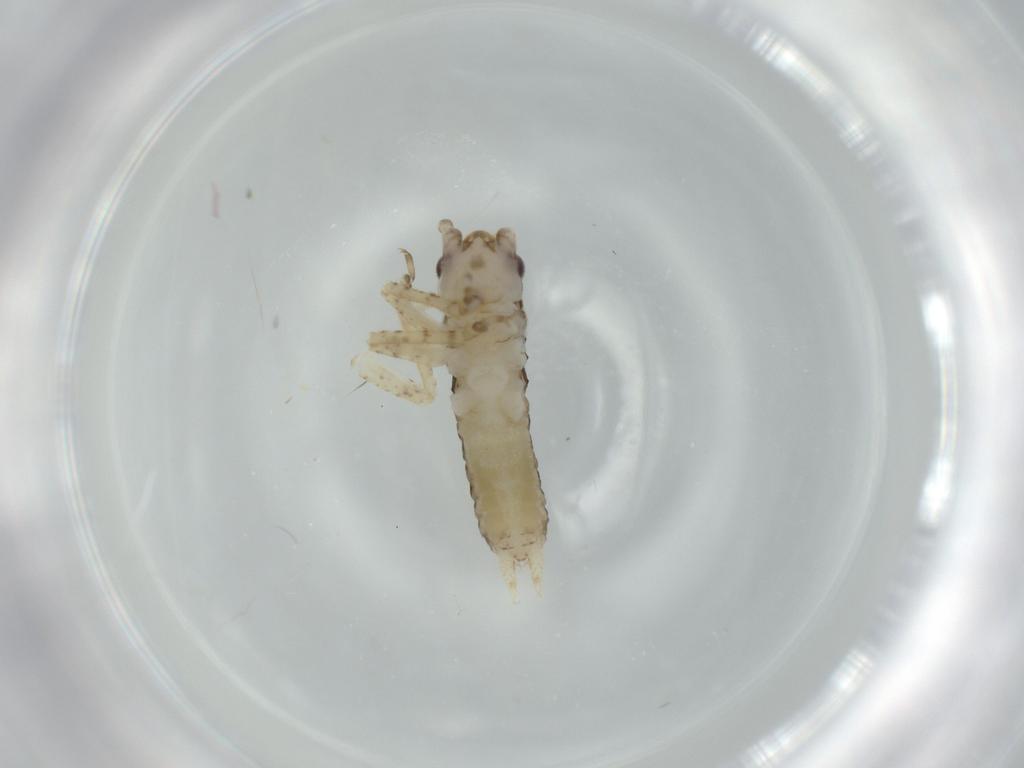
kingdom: Animalia
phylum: Arthropoda
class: Insecta
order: Orthoptera
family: Gryllidae
